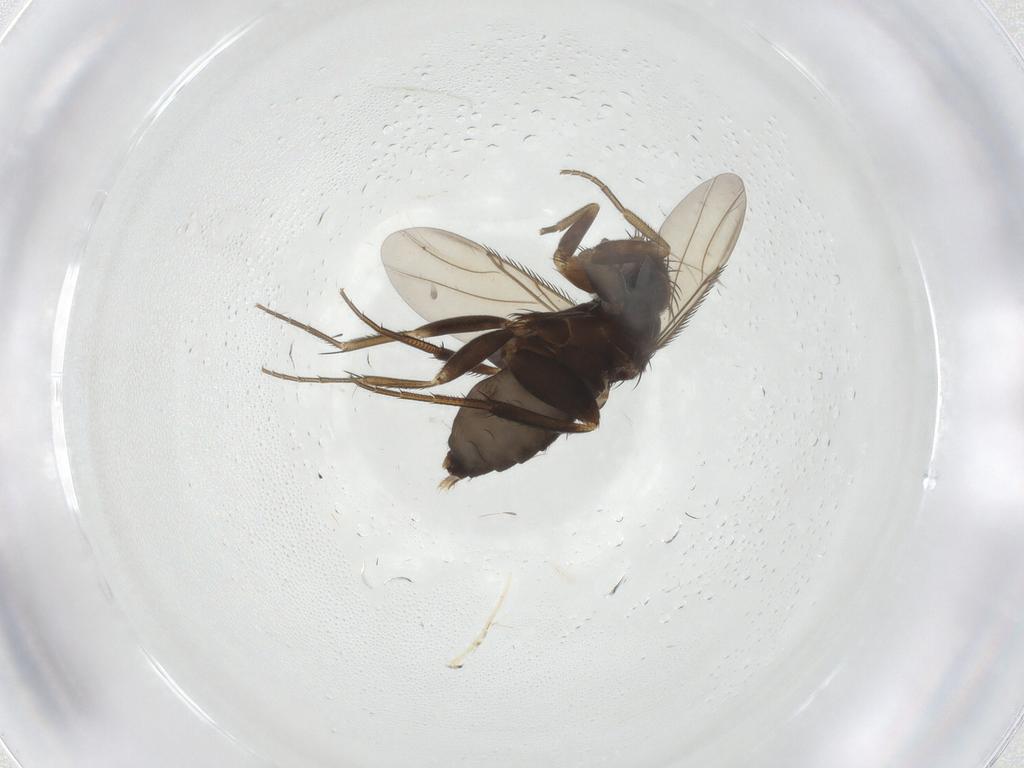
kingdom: Animalia
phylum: Arthropoda
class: Insecta
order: Diptera
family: Phoridae
